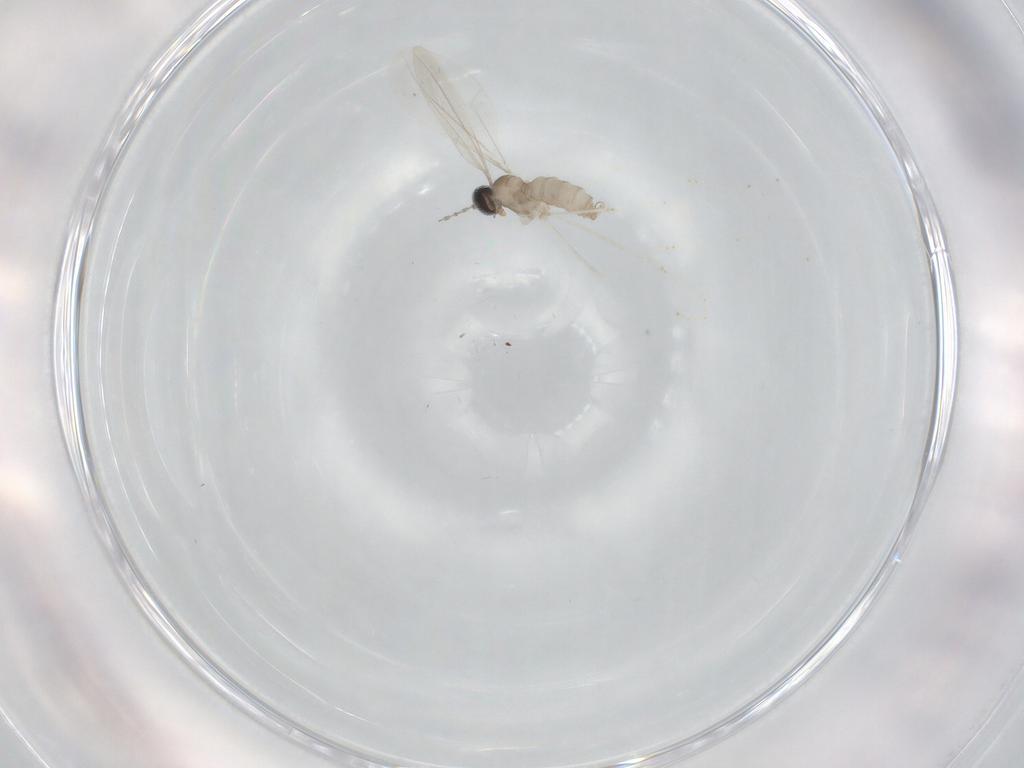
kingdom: Animalia
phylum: Arthropoda
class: Insecta
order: Diptera
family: Cecidomyiidae
